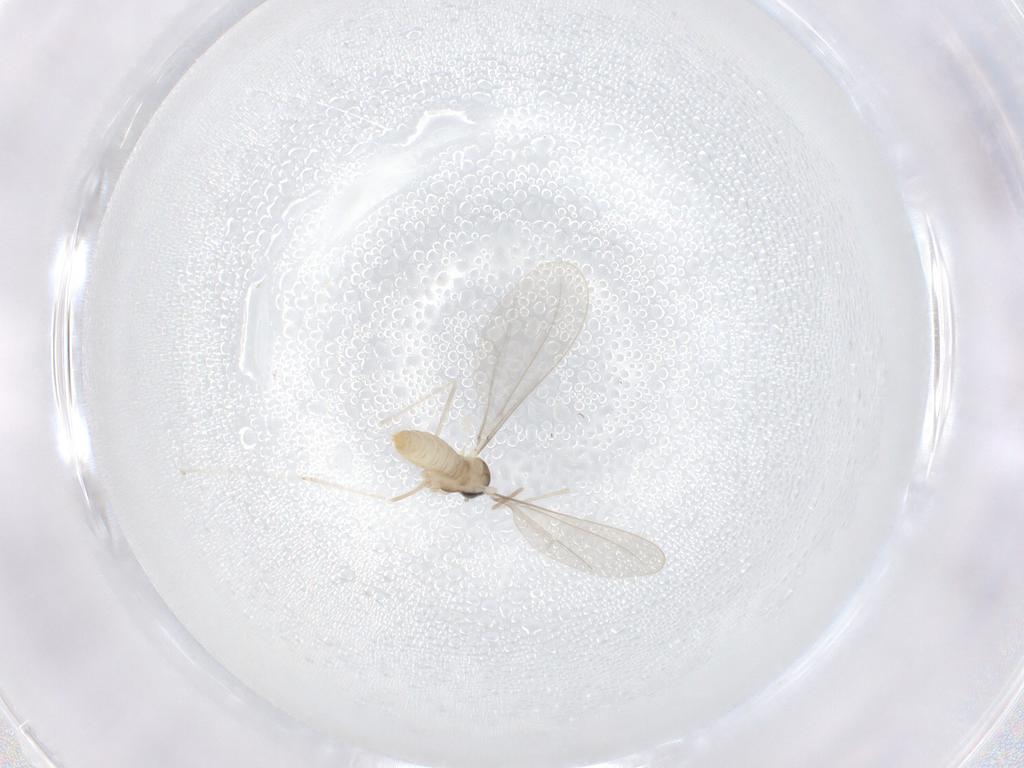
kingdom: Animalia
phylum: Arthropoda
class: Insecta
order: Diptera
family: Cecidomyiidae
